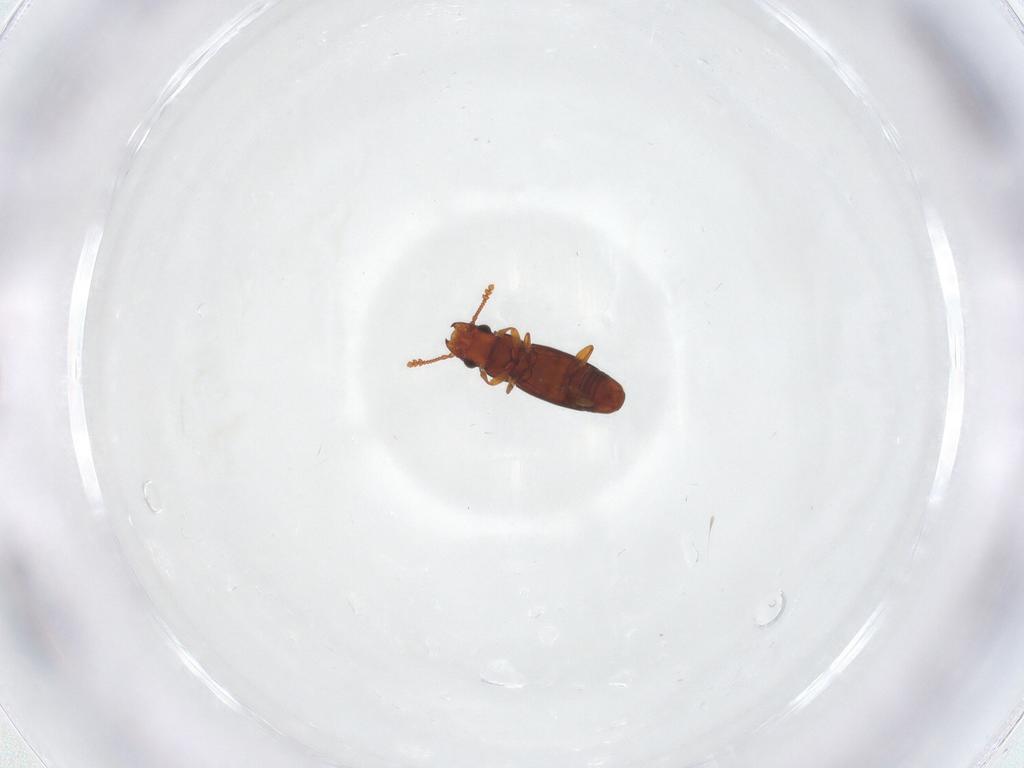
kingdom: Animalia
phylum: Arthropoda
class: Insecta
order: Coleoptera
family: Smicripidae
